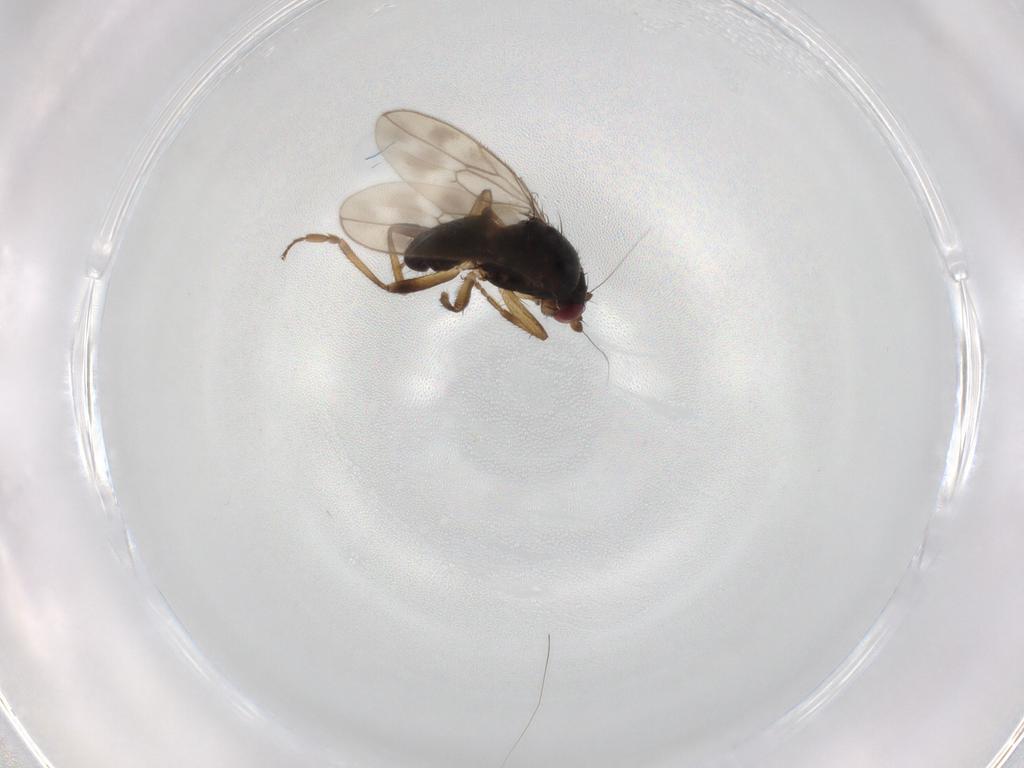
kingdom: Animalia
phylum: Arthropoda
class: Insecta
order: Diptera
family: Sphaeroceridae
